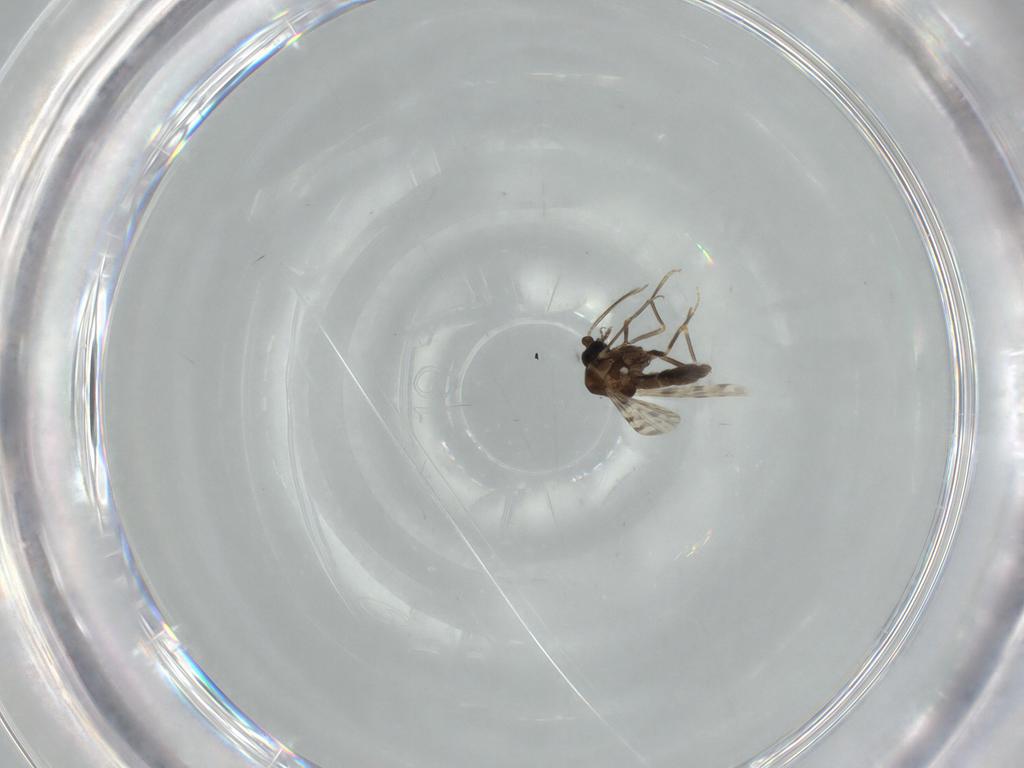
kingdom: Animalia
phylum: Arthropoda
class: Insecta
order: Diptera
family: Ceratopogonidae
